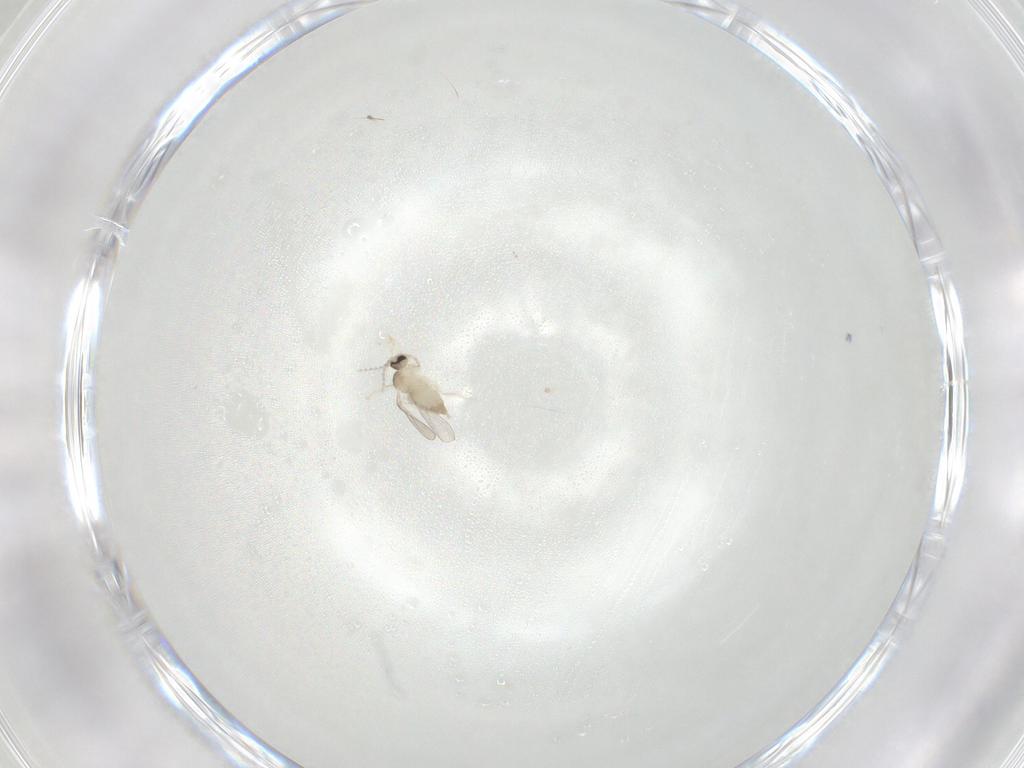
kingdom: Animalia
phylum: Arthropoda
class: Insecta
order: Diptera
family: Cecidomyiidae
